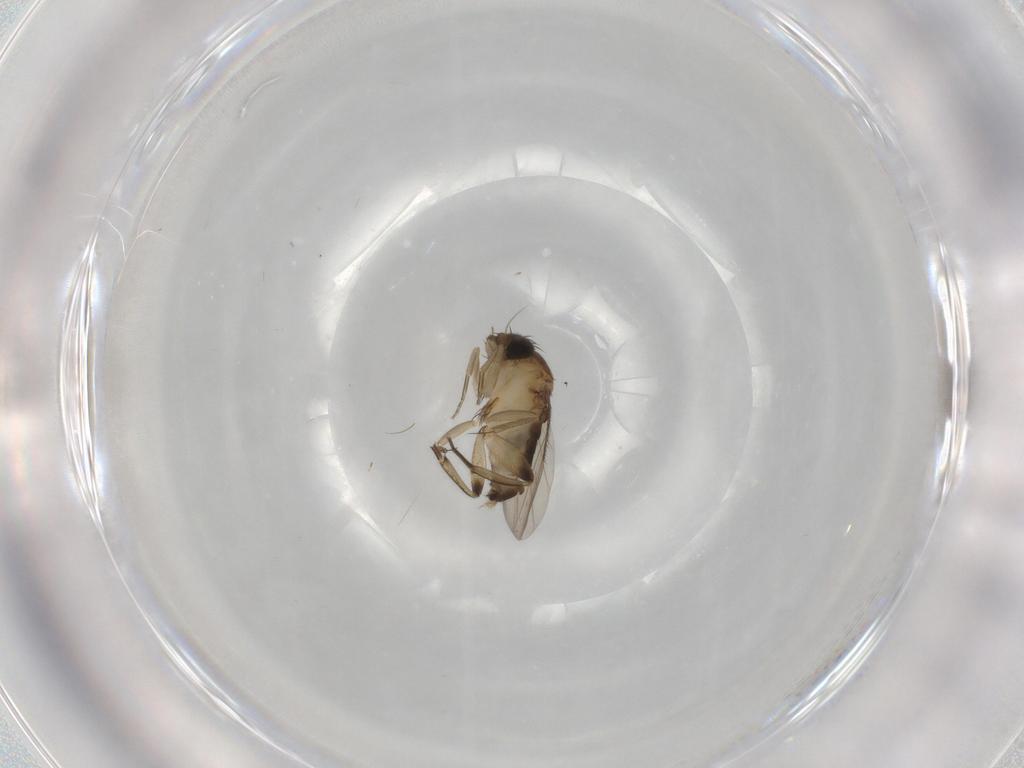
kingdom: Animalia
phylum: Arthropoda
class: Insecta
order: Diptera
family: Phoridae
